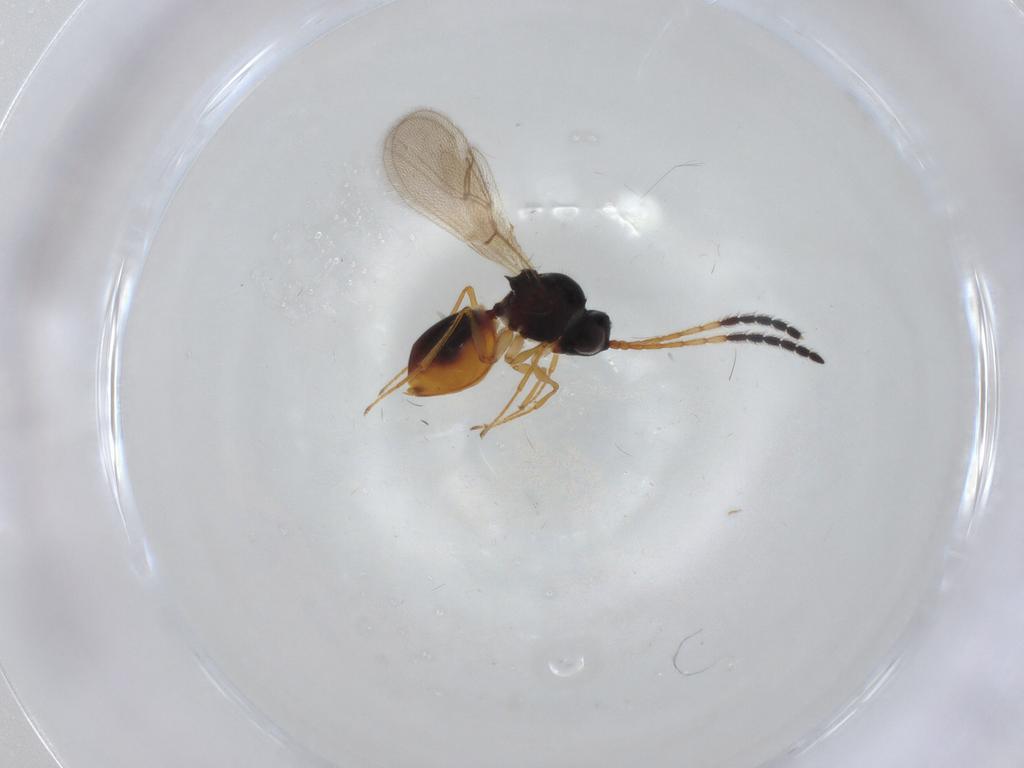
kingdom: Animalia
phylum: Arthropoda
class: Insecta
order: Hymenoptera
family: Figitidae
